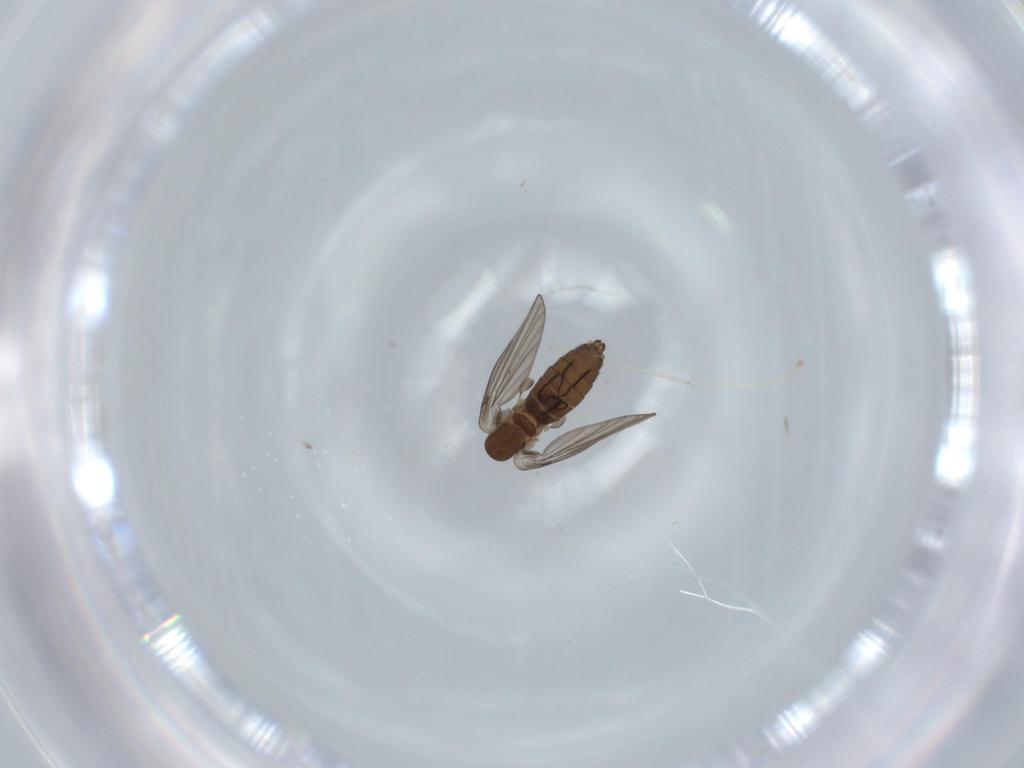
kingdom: Animalia
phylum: Arthropoda
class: Insecta
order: Diptera
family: Psychodidae
